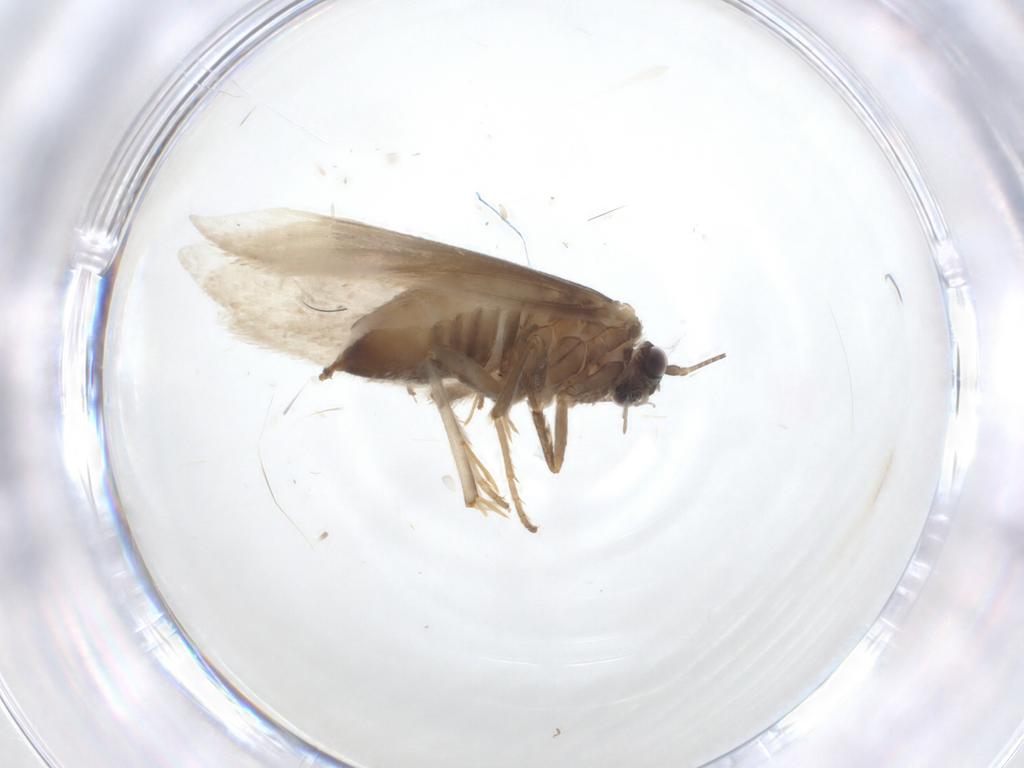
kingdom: Animalia
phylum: Arthropoda
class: Insecta
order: Lepidoptera
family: Tridentaformidae
